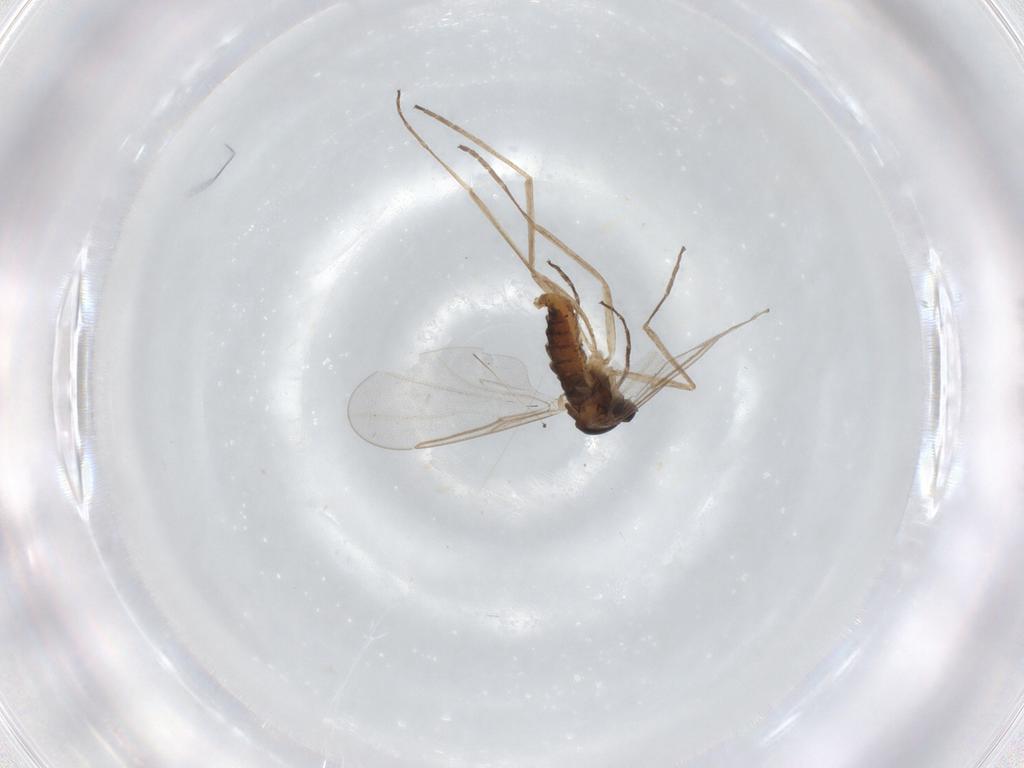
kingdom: Animalia
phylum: Arthropoda
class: Insecta
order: Diptera
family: Cecidomyiidae
